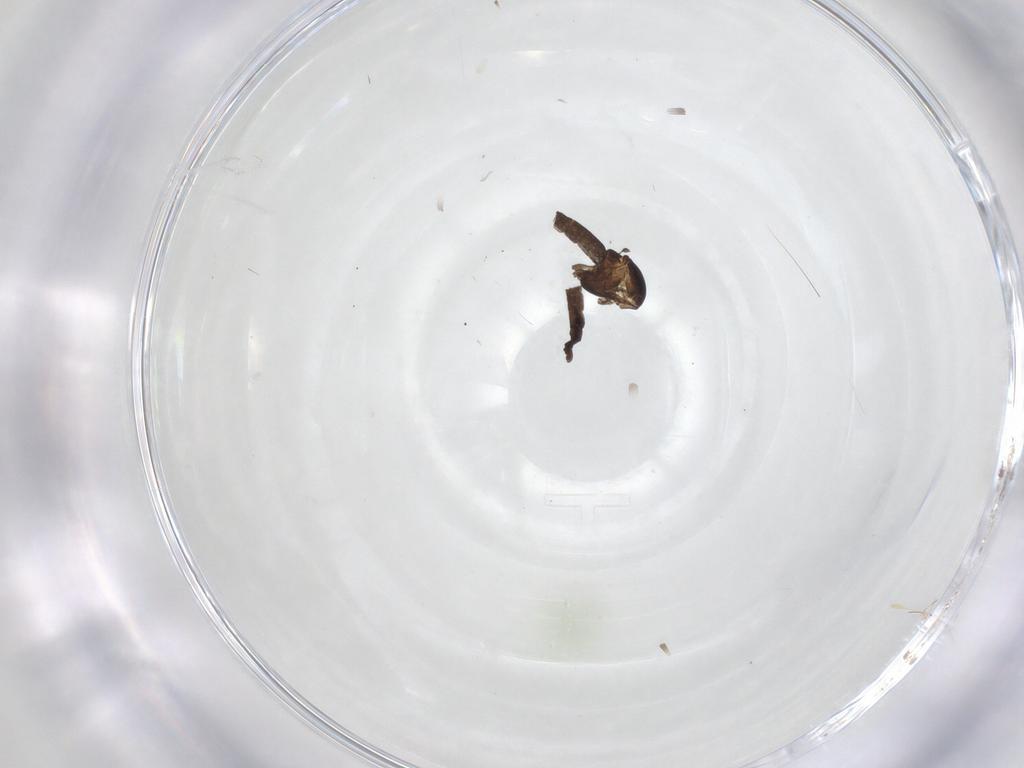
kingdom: Animalia
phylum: Arthropoda
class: Insecta
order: Diptera
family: Chironomidae
